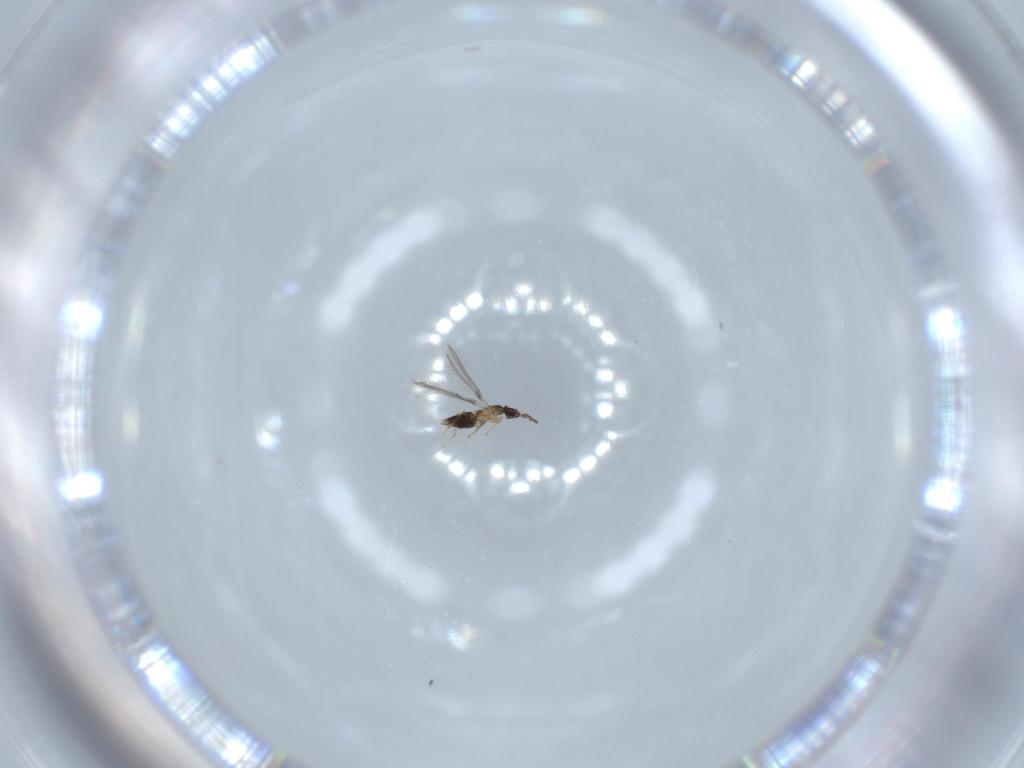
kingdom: Animalia
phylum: Arthropoda
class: Insecta
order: Hymenoptera
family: Mymaridae
